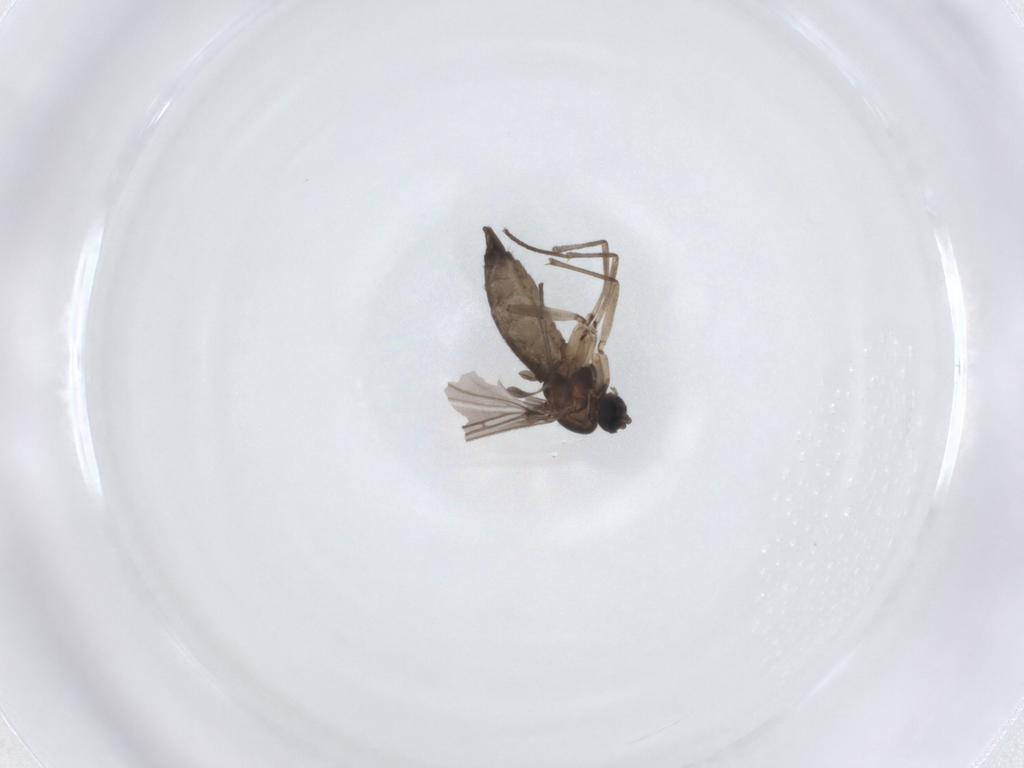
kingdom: Animalia
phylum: Arthropoda
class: Insecta
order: Diptera
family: Sciaridae
